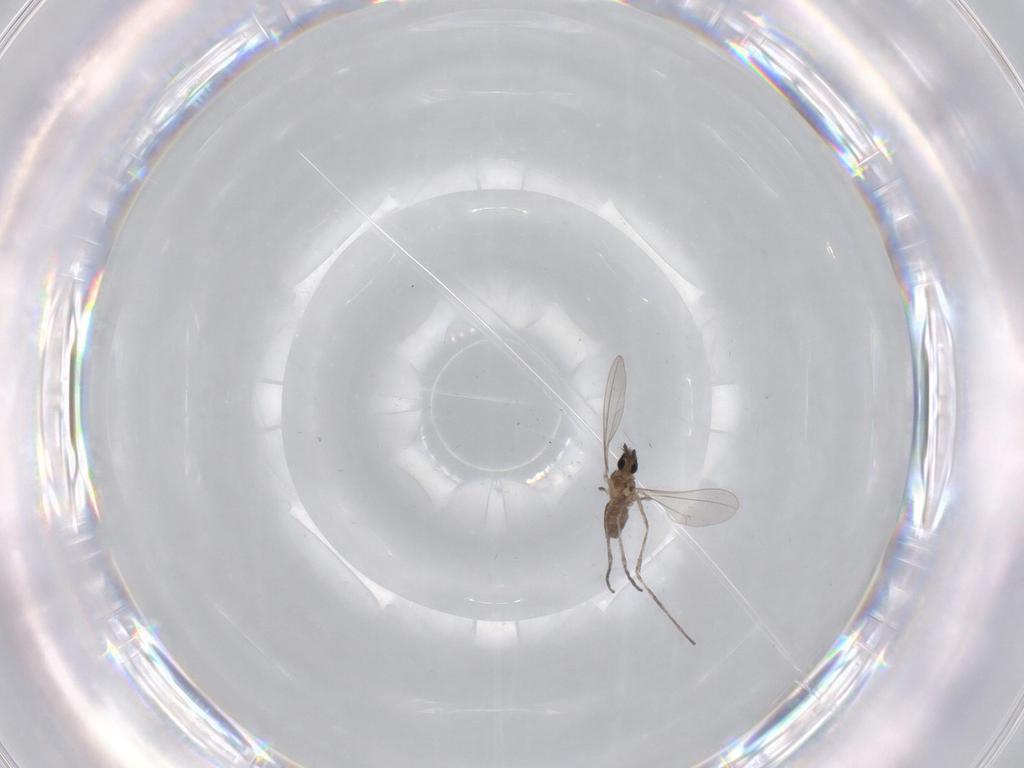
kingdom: Animalia
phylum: Arthropoda
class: Insecta
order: Diptera
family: Cecidomyiidae
